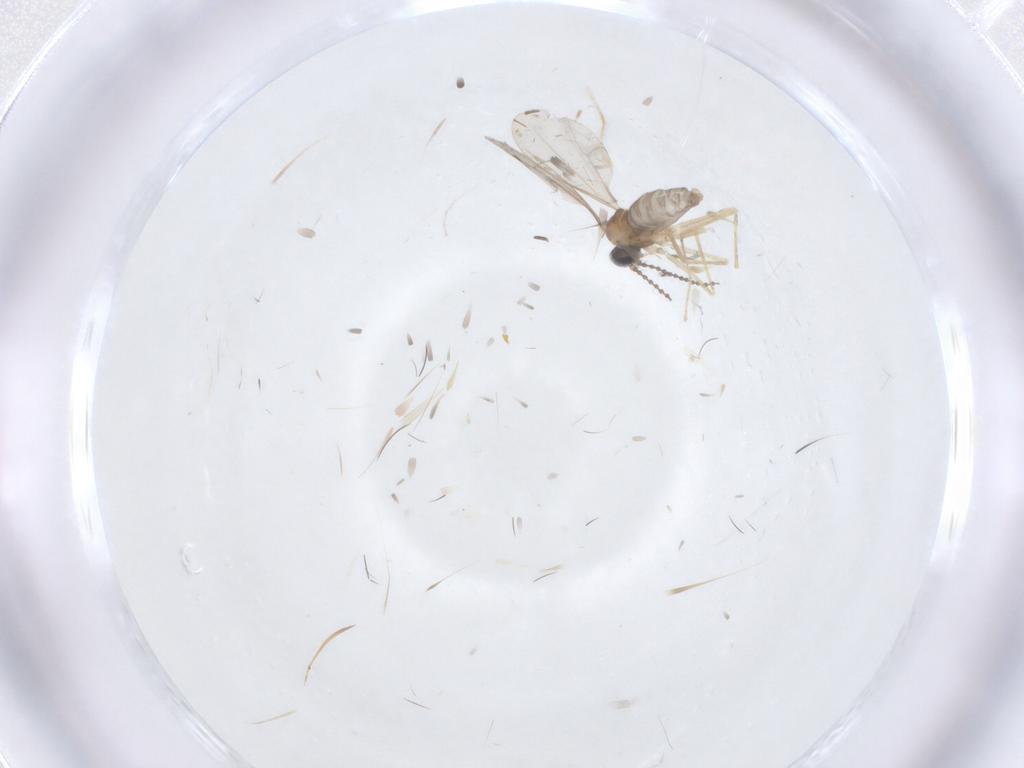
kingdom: Animalia
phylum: Arthropoda
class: Insecta
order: Diptera
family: Cecidomyiidae
